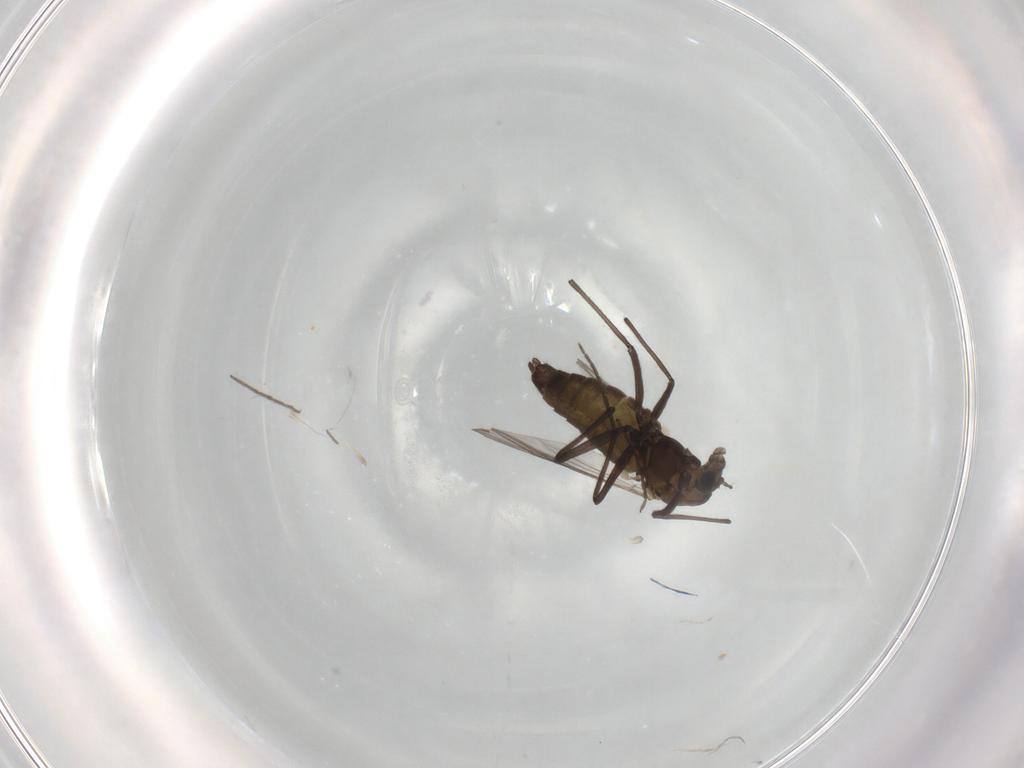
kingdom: Animalia
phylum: Arthropoda
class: Insecta
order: Diptera
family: Chironomidae
